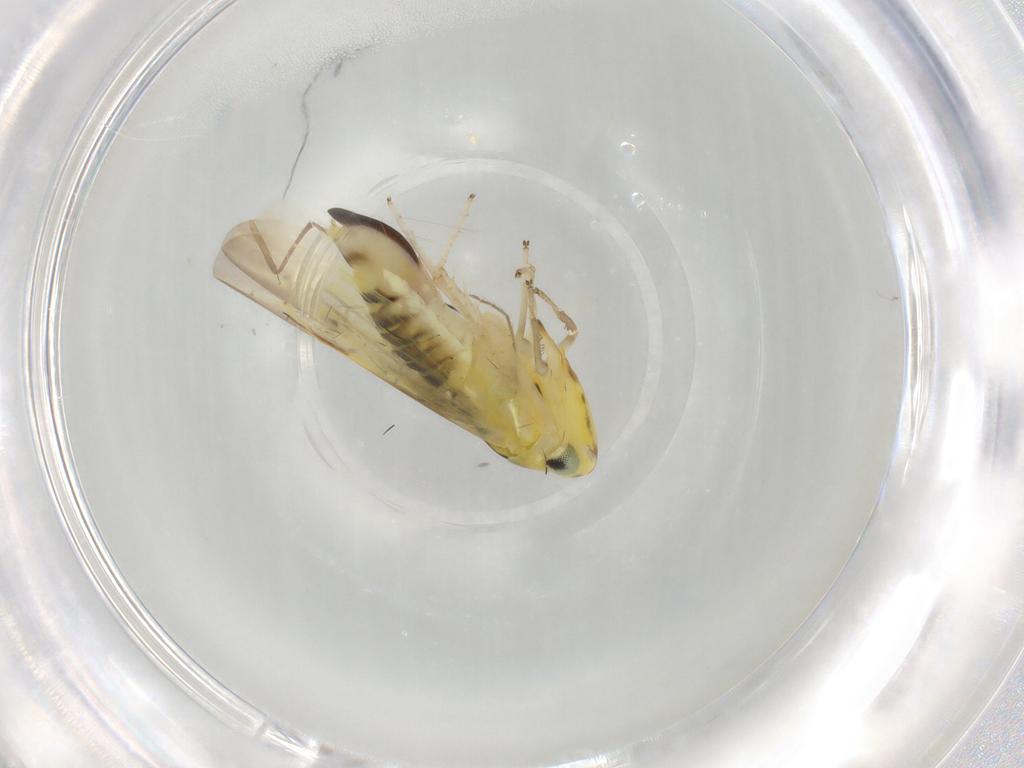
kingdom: Animalia
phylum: Arthropoda
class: Insecta
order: Hemiptera
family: Cicadellidae
